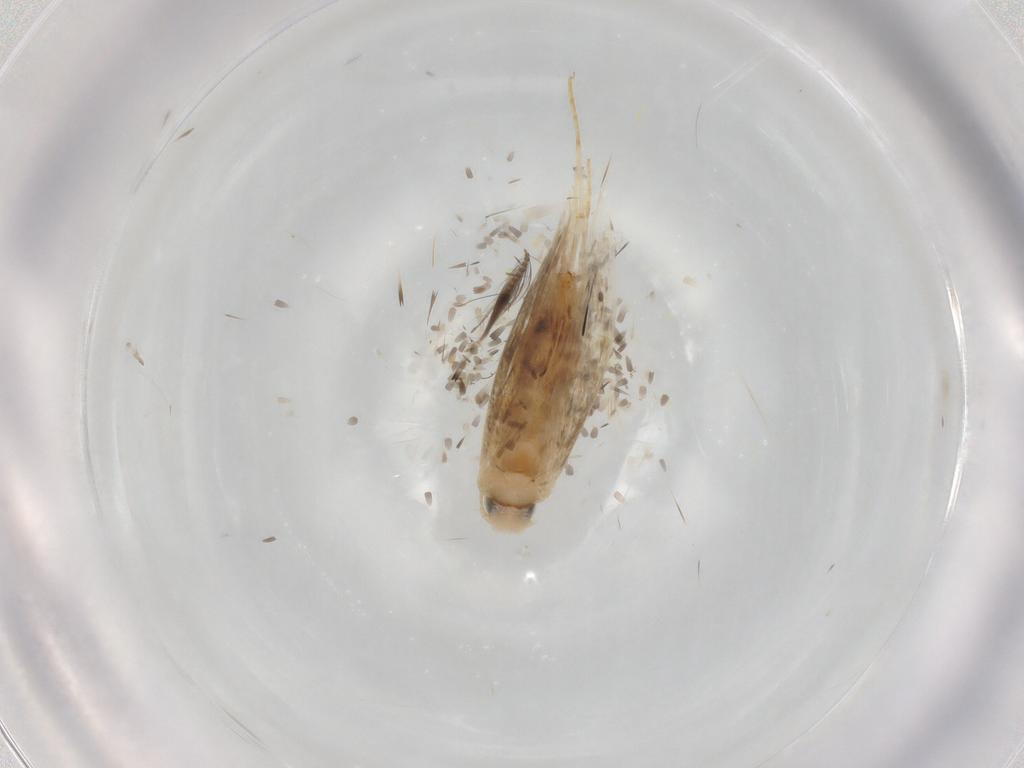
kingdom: Animalia
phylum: Arthropoda
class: Insecta
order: Lepidoptera
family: Tischeriidae
